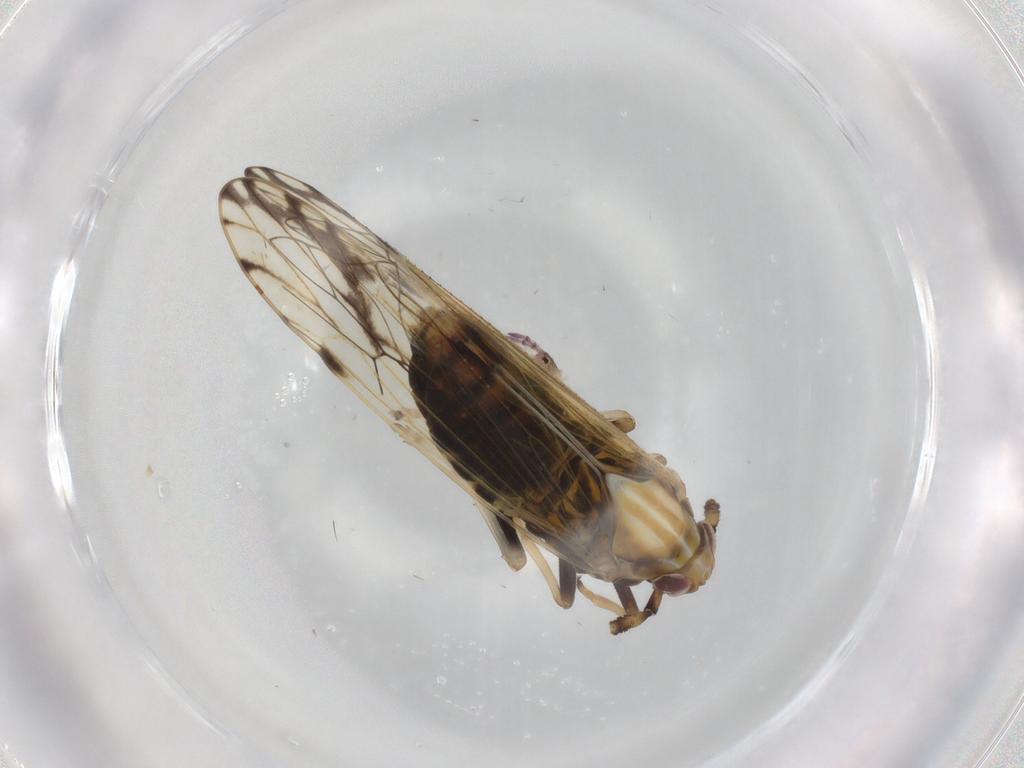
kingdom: Animalia
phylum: Arthropoda
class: Insecta
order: Hemiptera
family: Delphacidae
